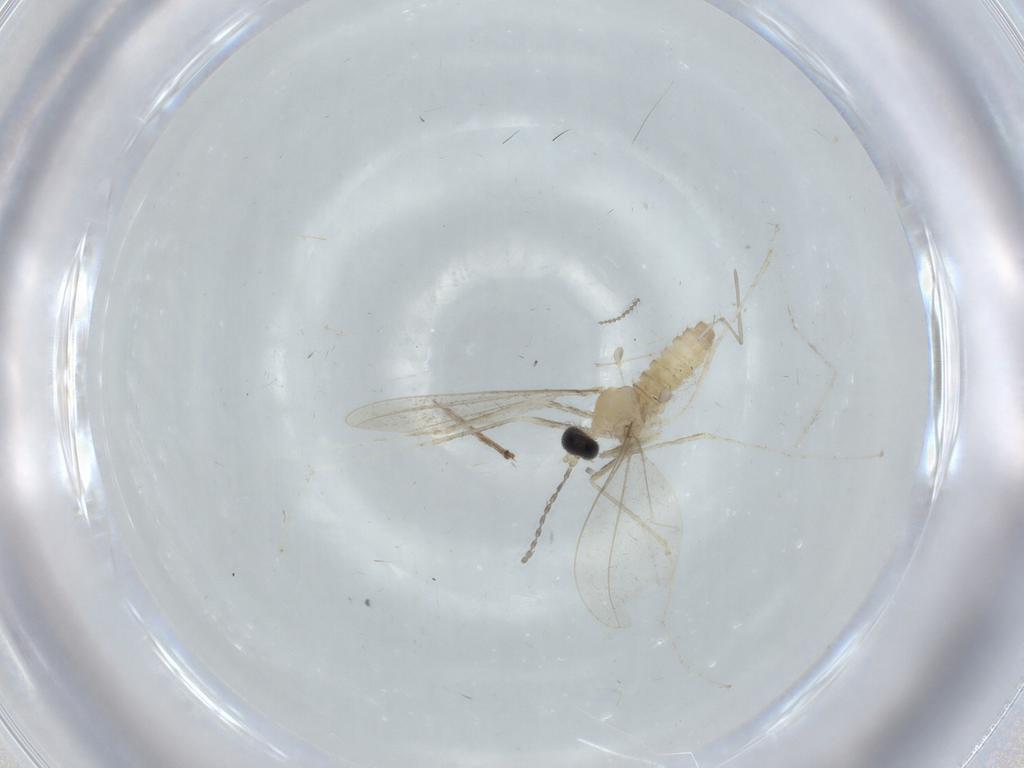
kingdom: Animalia
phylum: Arthropoda
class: Insecta
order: Diptera
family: Cecidomyiidae
